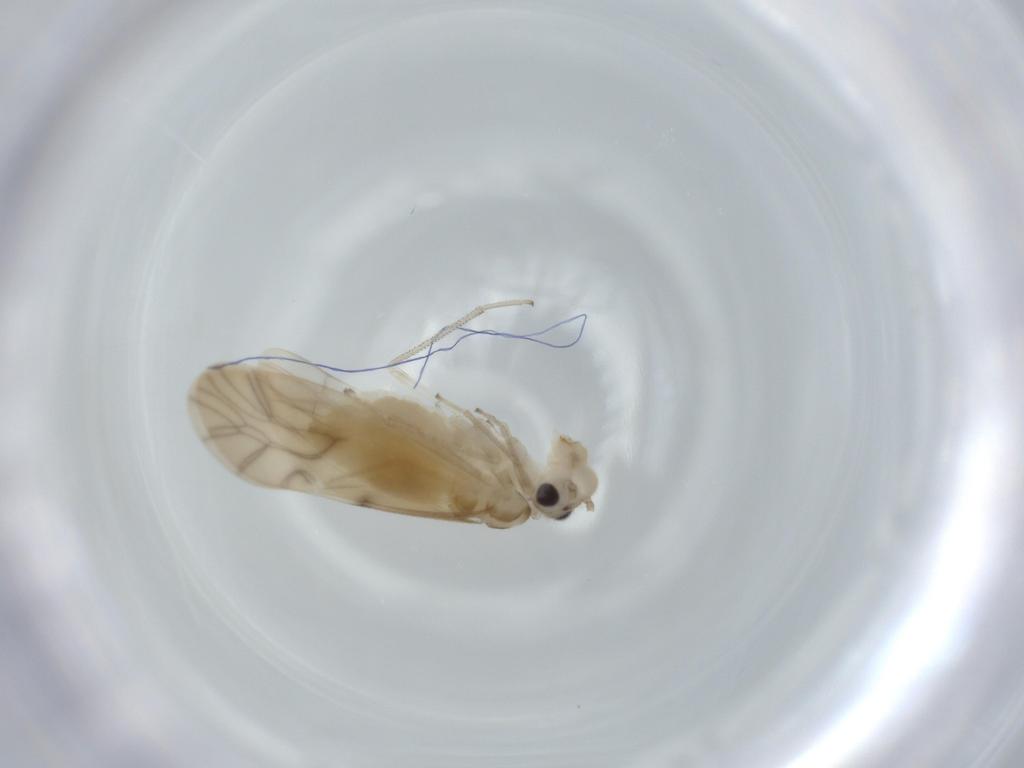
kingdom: Animalia
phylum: Arthropoda
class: Insecta
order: Psocodea
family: Caeciliusidae
